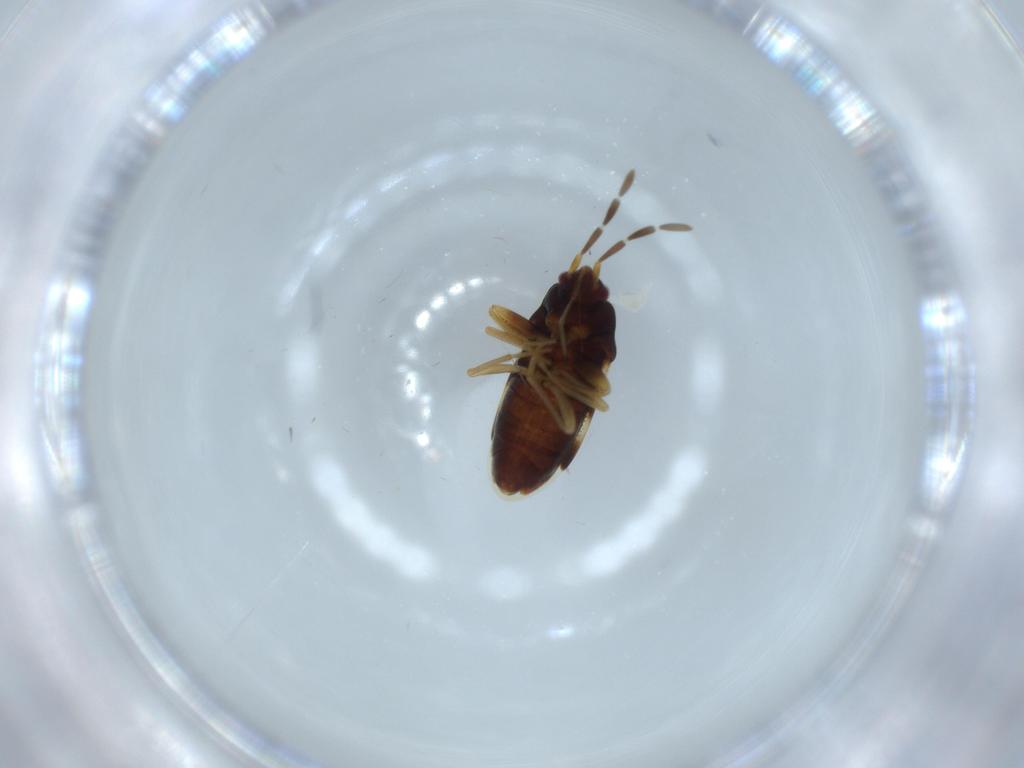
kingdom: Animalia
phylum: Arthropoda
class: Insecta
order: Hemiptera
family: Rhyparochromidae
